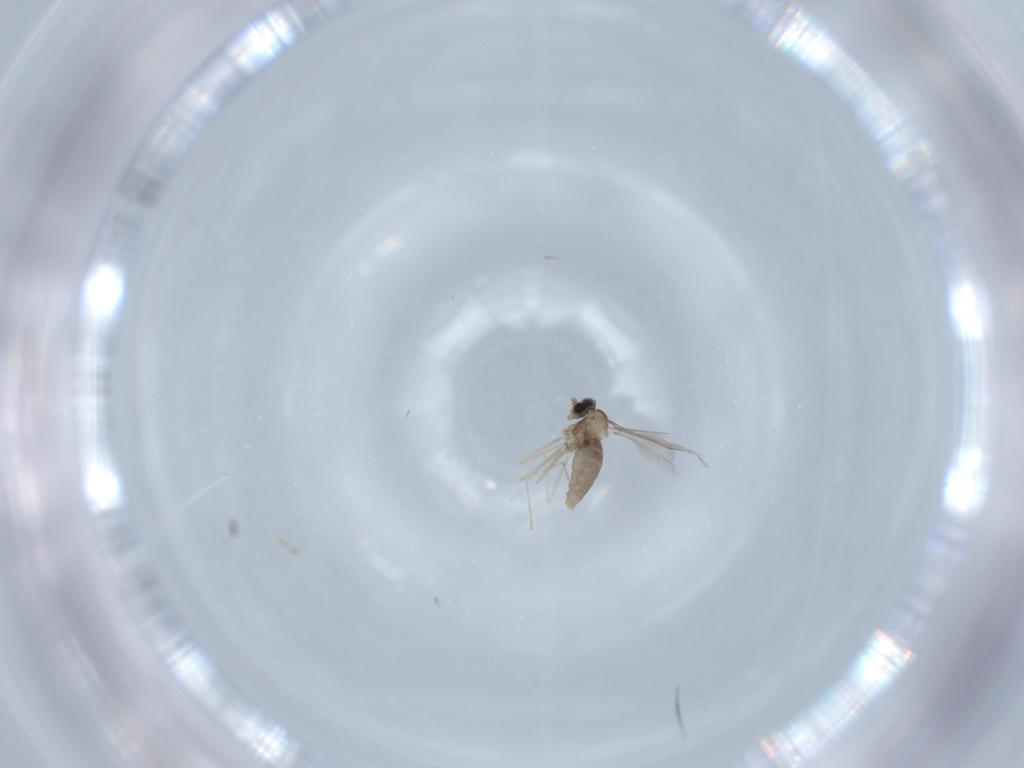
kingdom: Animalia
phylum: Arthropoda
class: Insecta
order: Diptera
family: Cecidomyiidae
